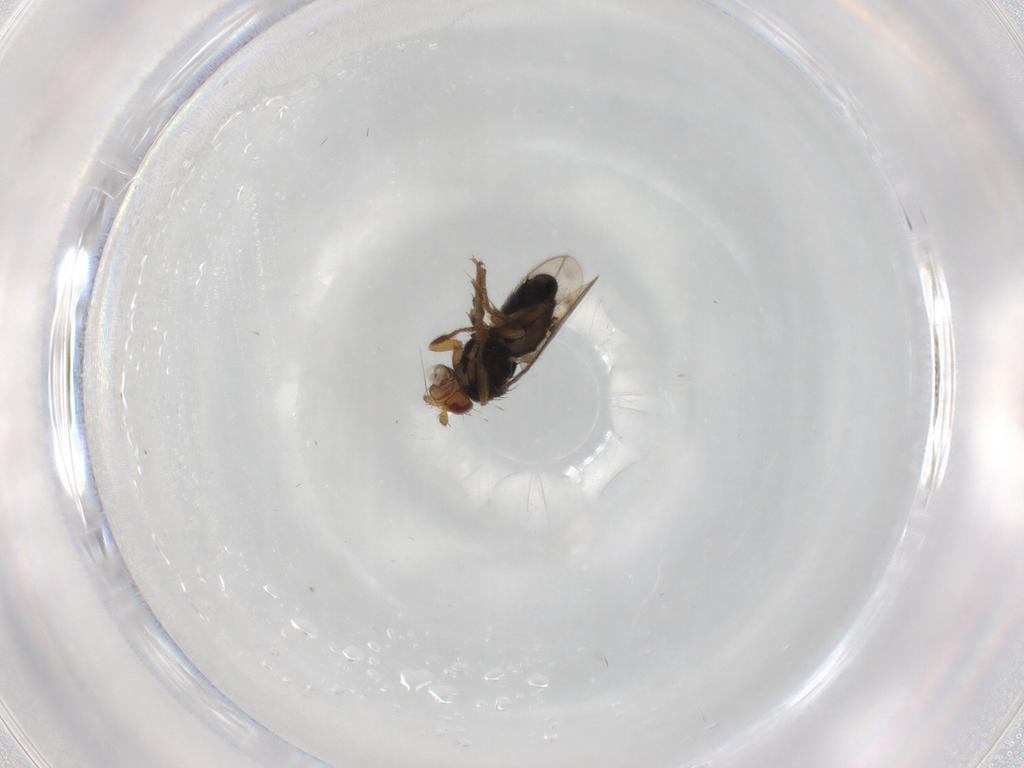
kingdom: Animalia
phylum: Arthropoda
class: Insecta
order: Diptera
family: Sphaeroceridae
